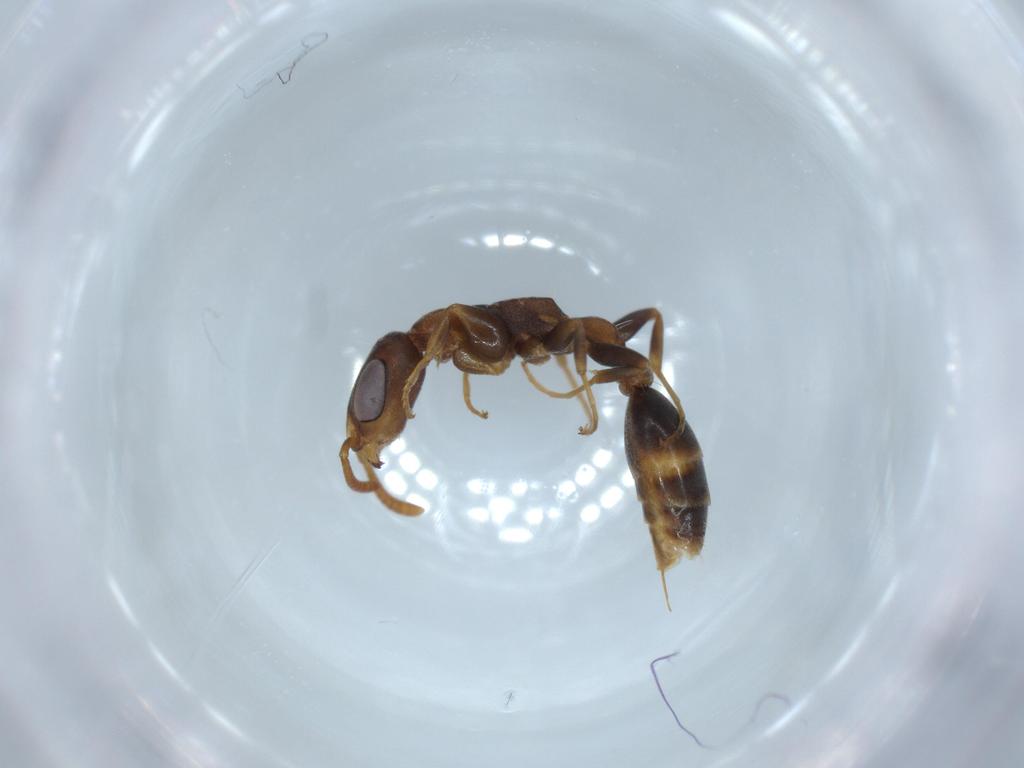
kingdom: Animalia
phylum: Arthropoda
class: Insecta
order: Hymenoptera
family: Formicidae
